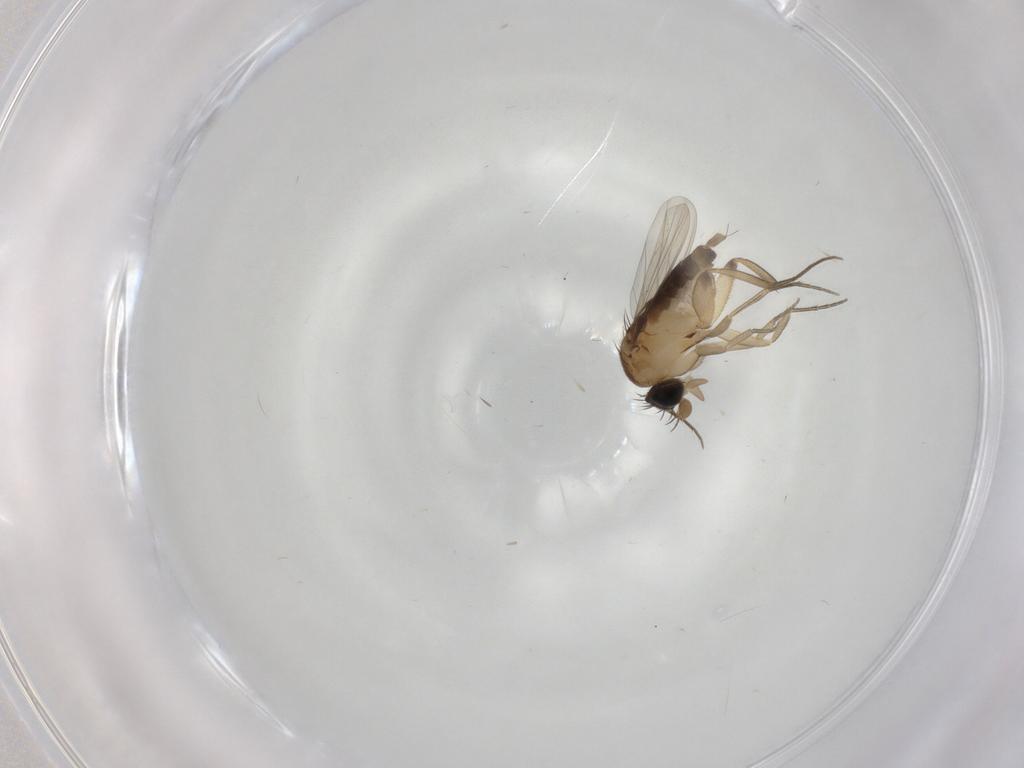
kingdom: Animalia
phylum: Arthropoda
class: Insecta
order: Diptera
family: Phoridae
